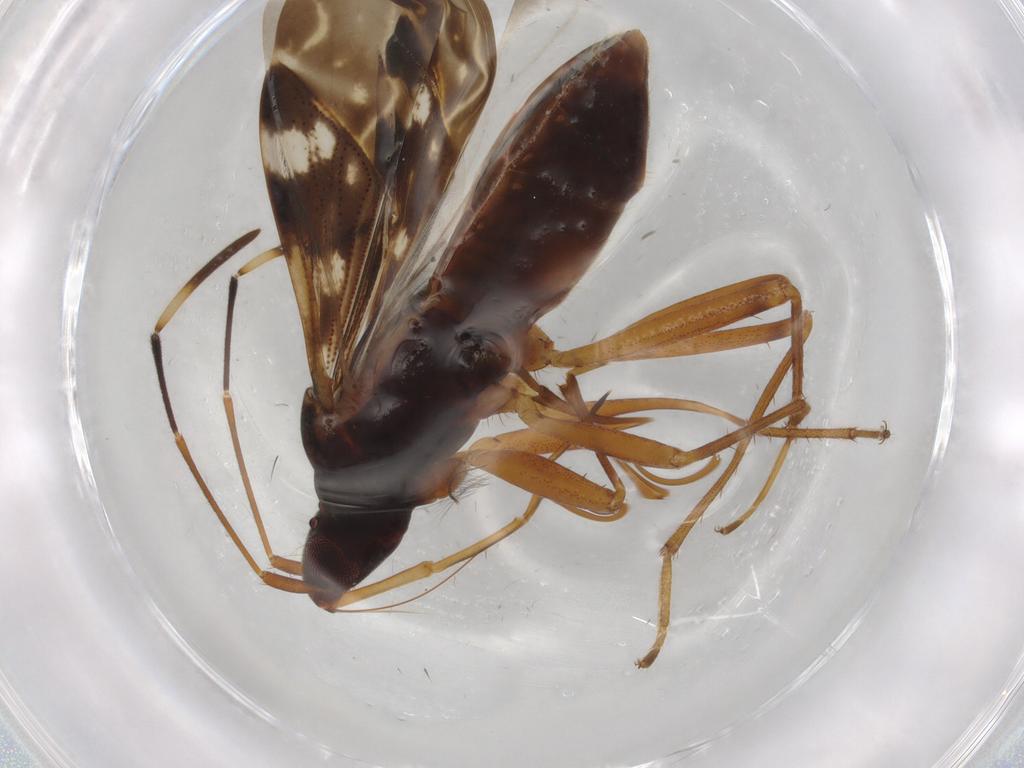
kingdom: Animalia
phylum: Arthropoda
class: Insecta
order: Hemiptera
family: Rhyparochromidae
